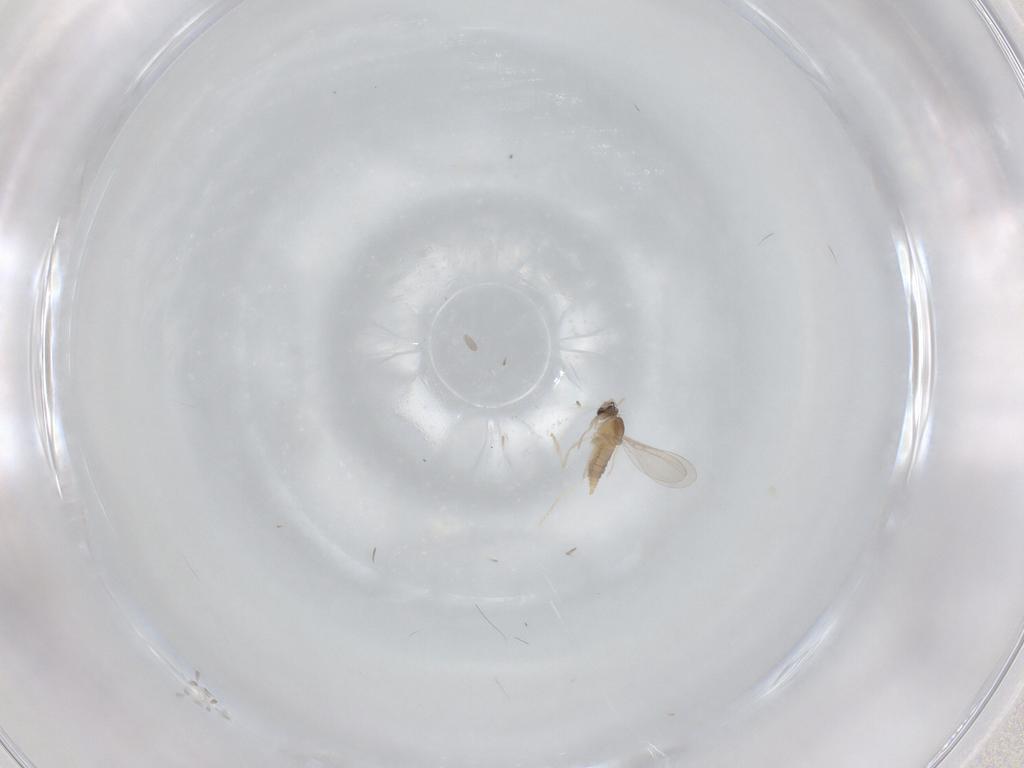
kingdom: Animalia
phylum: Arthropoda
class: Insecta
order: Diptera
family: Cecidomyiidae
